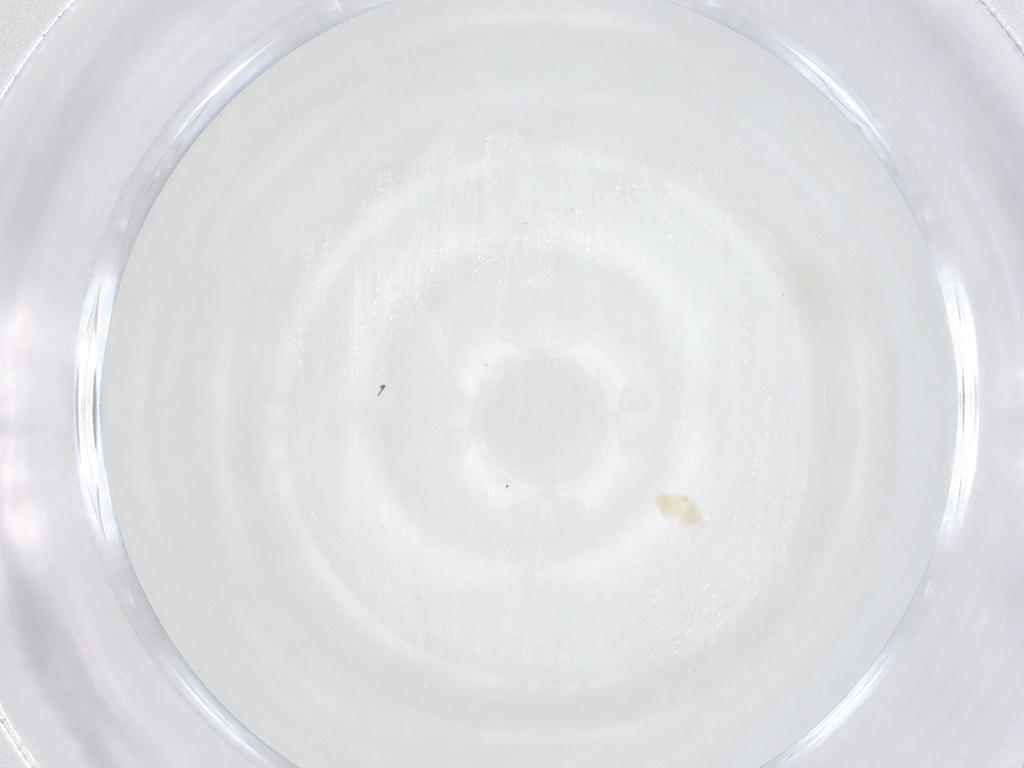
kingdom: Animalia
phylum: Arthropoda
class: Arachnida
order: Trombidiformes
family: Eupodidae
